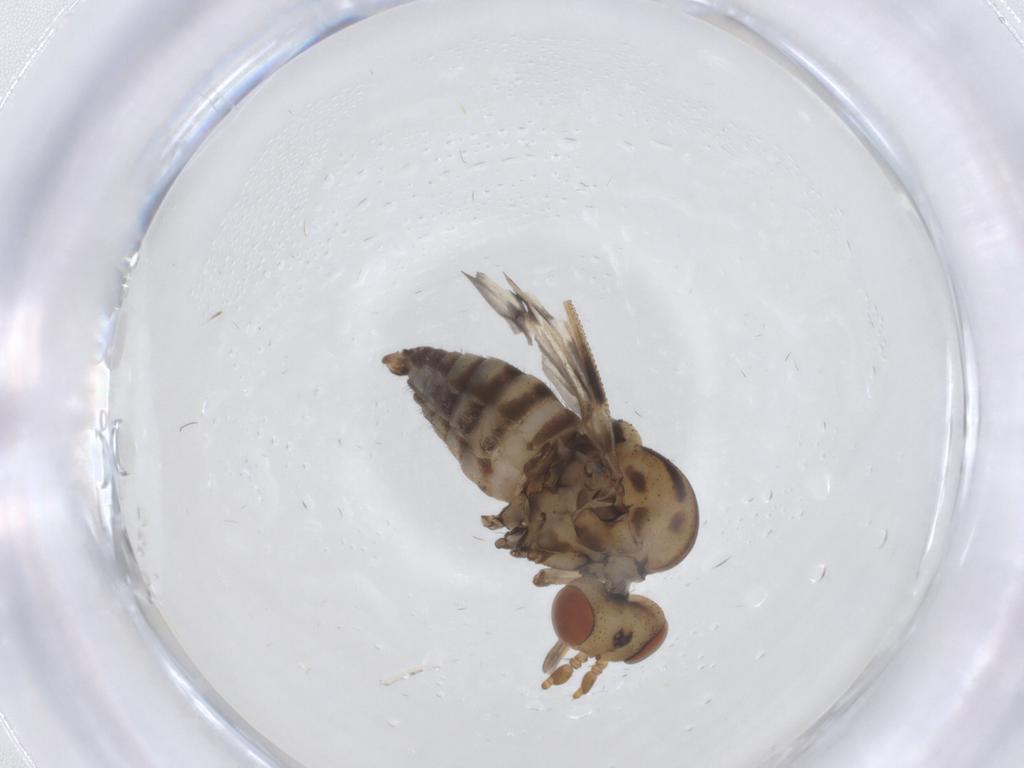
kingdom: Animalia
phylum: Arthropoda
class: Insecta
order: Diptera
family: Austroleptidae
